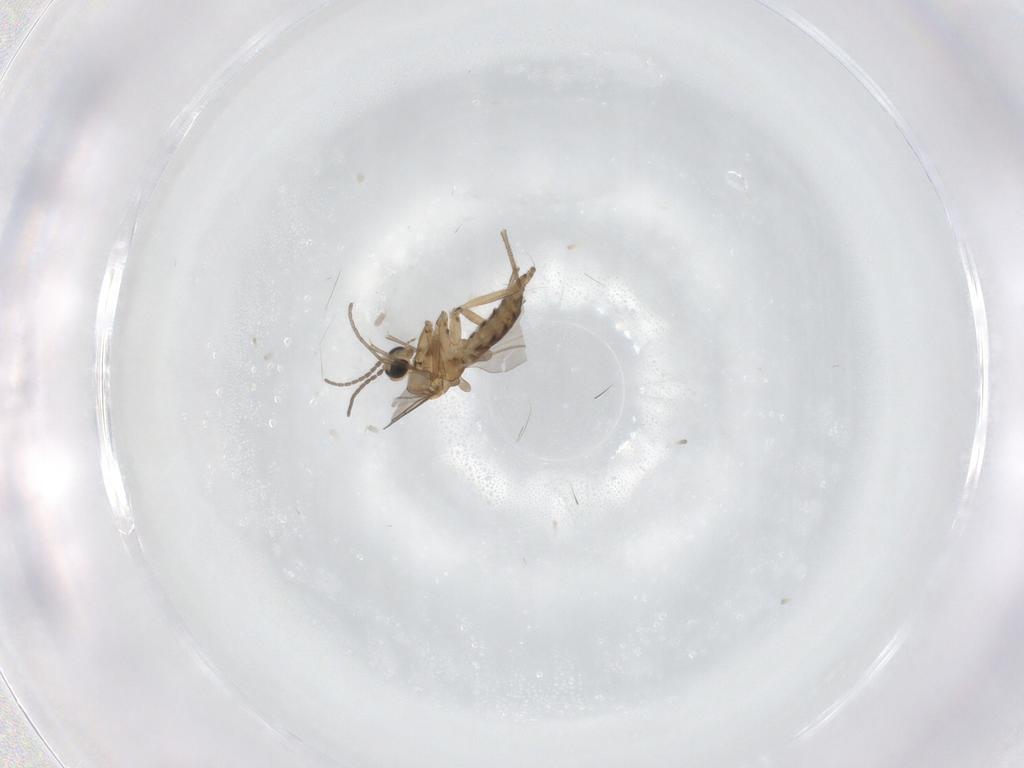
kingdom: Animalia
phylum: Arthropoda
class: Insecta
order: Diptera
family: Cecidomyiidae
